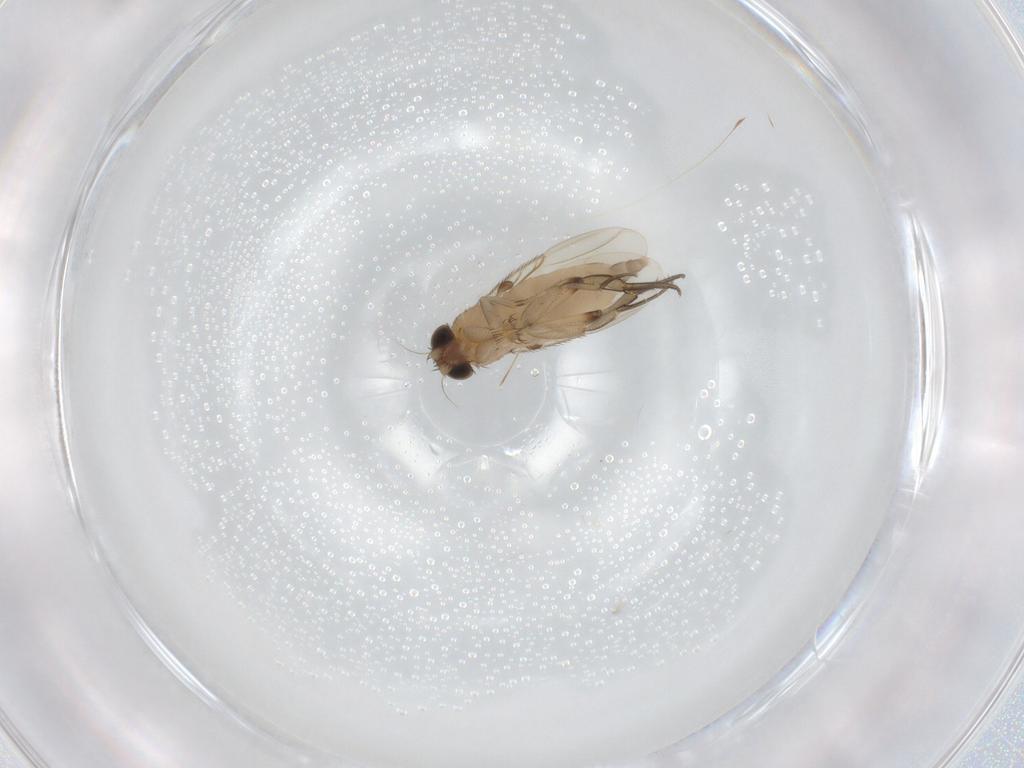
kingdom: Animalia
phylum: Arthropoda
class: Insecta
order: Diptera
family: Phoridae
